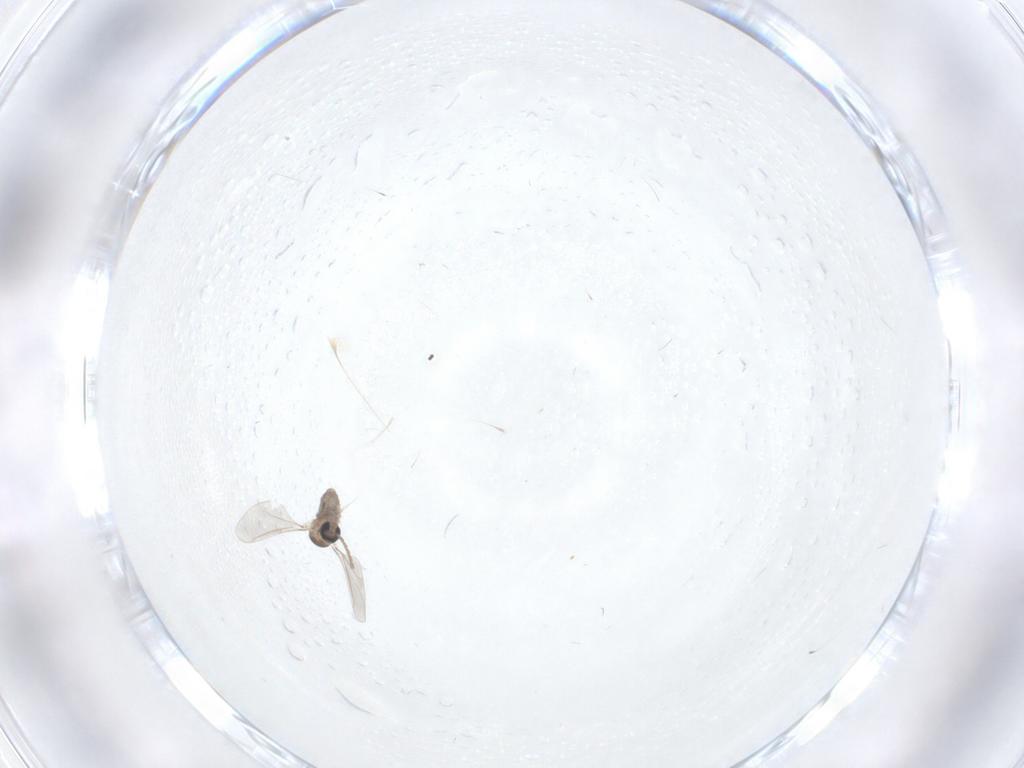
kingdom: Animalia
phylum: Arthropoda
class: Insecta
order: Diptera
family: Cecidomyiidae
